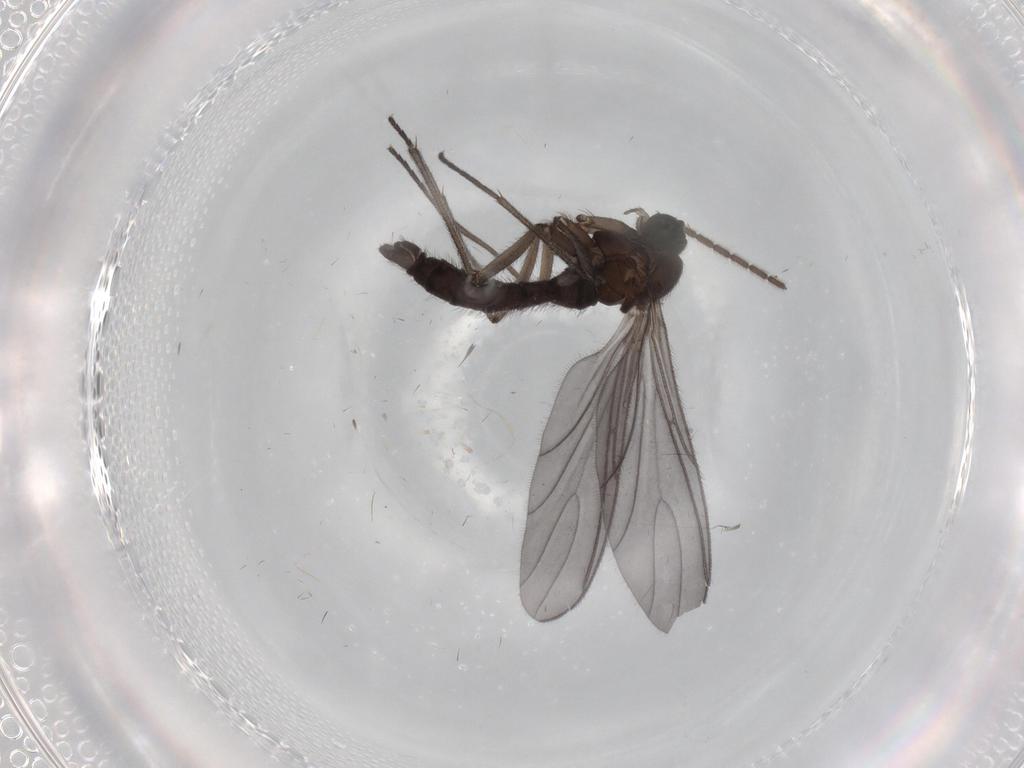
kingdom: Animalia
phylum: Arthropoda
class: Insecta
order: Diptera
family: Sciaridae
